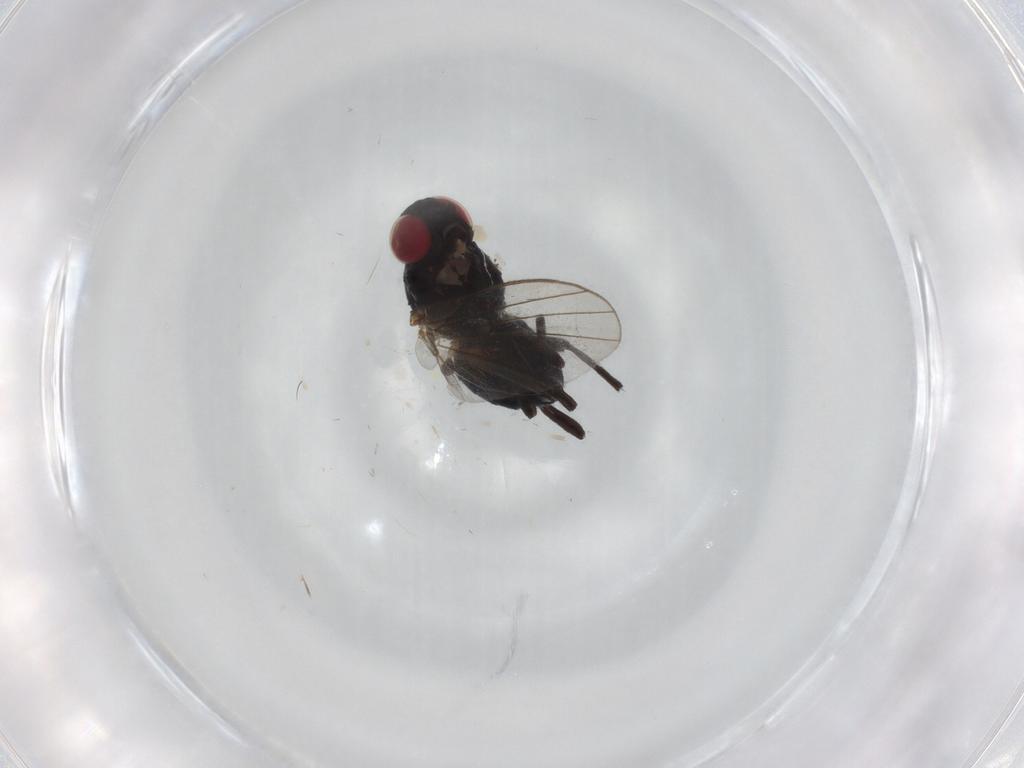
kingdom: Animalia
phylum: Arthropoda
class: Insecta
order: Diptera
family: Agromyzidae
